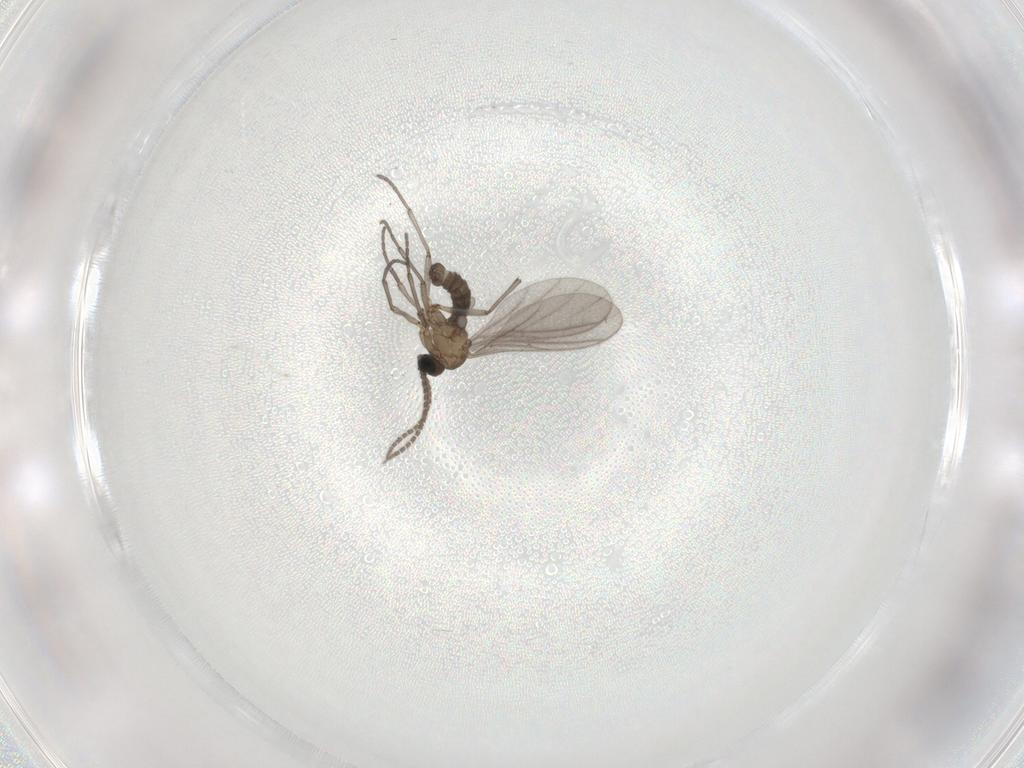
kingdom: Animalia
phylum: Arthropoda
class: Insecta
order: Diptera
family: Sciaridae
